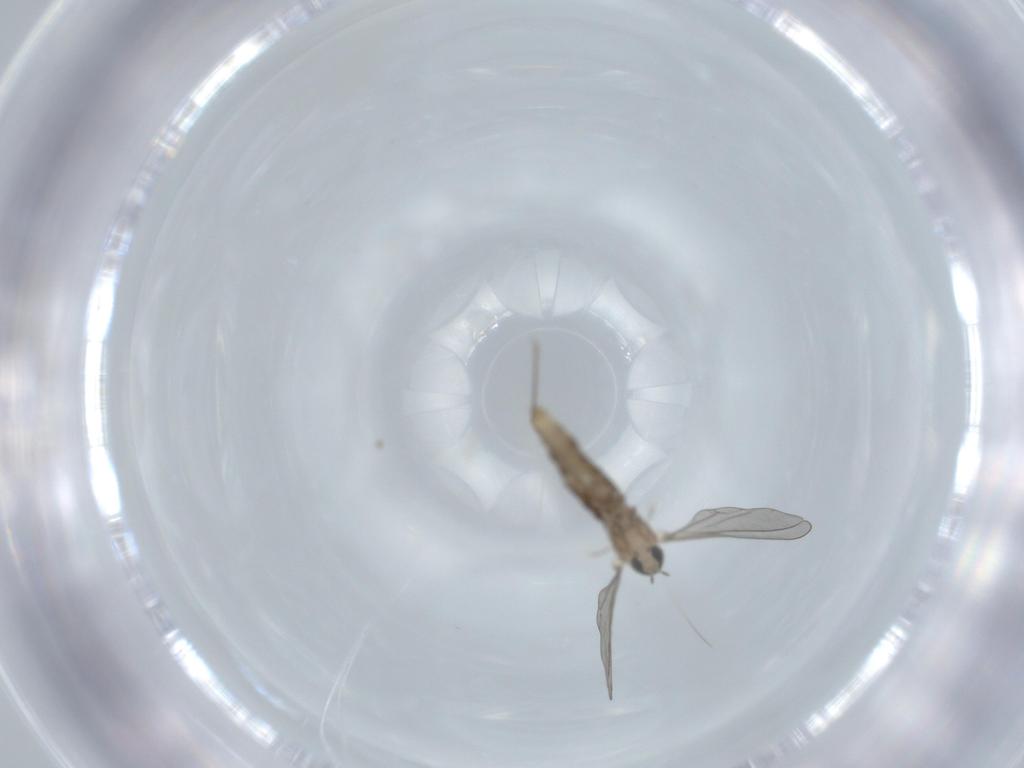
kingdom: Animalia
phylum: Arthropoda
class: Insecta
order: Diptera
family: Cecidomyiidae
